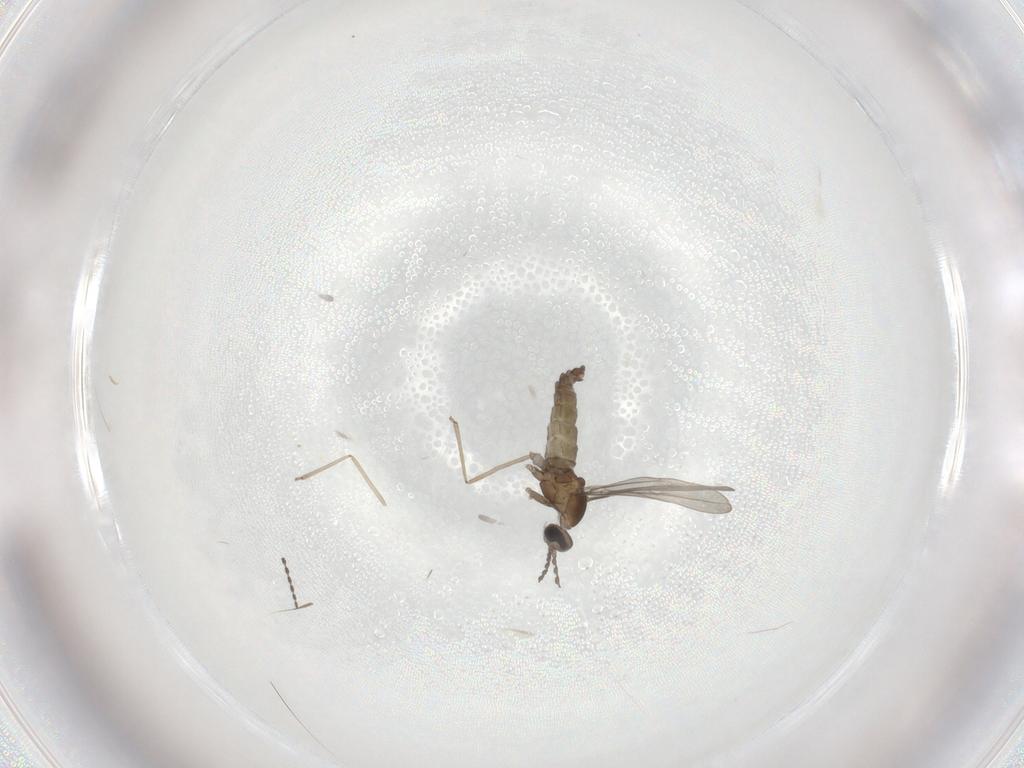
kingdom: Animalia
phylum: Arthropoda
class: Insecta
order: Diptera
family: Cecidomyiidae
